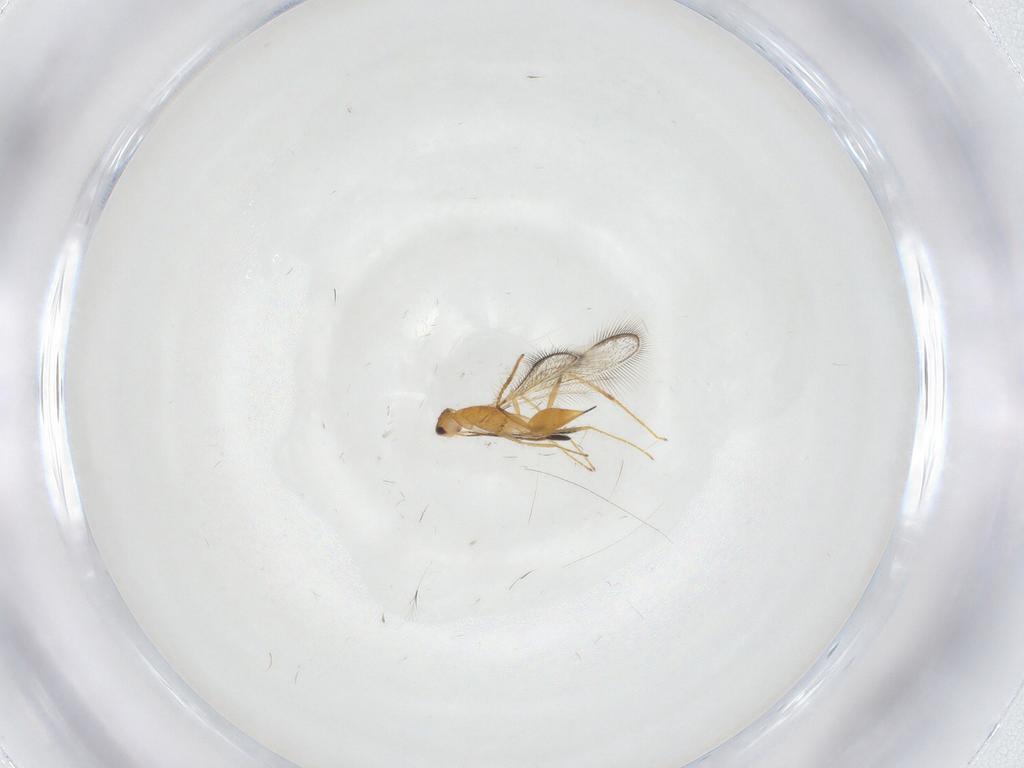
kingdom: Animalia
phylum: Arthropoda
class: Insecta
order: Hymenoptera
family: Mymaridae
